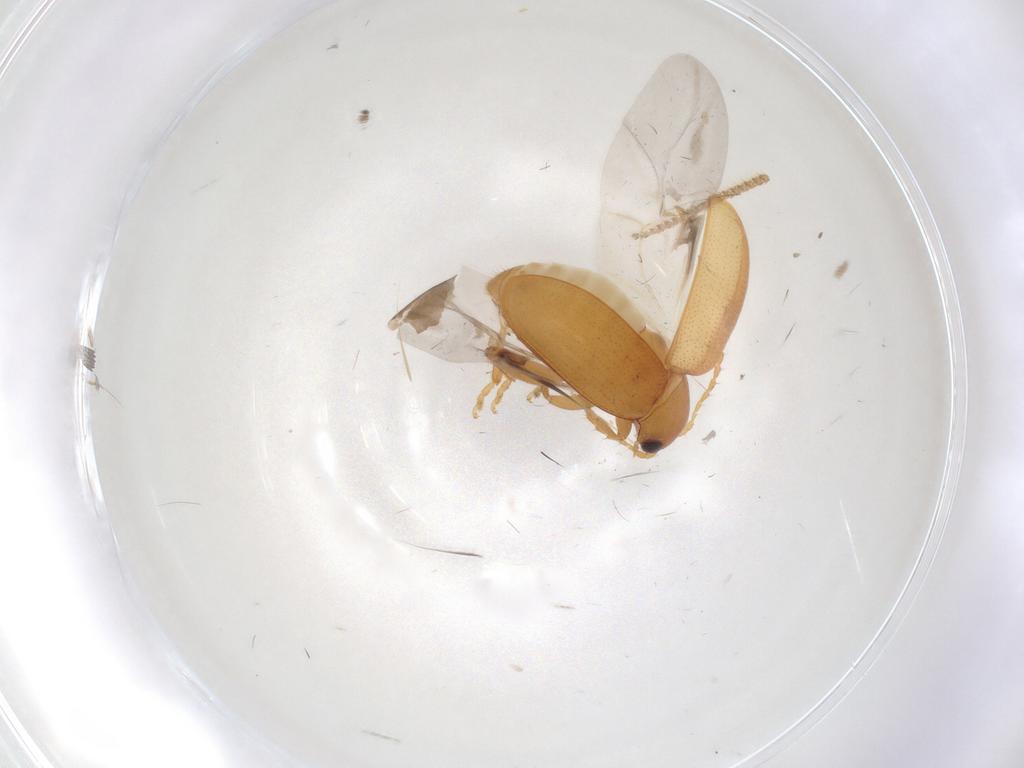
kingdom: Animalia
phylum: Arthropoda
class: Insecta
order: Coleoptera
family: Chrysomelidae
